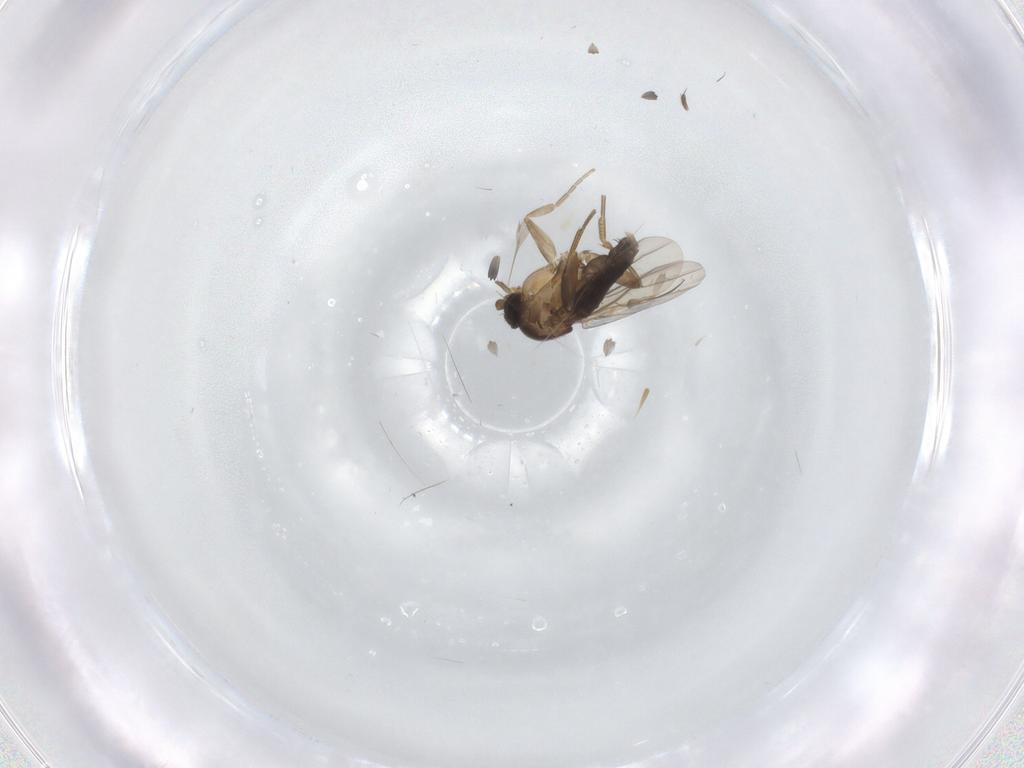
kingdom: Animalia
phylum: Arthropoda
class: Insecta
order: Diptera
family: Phoridae
